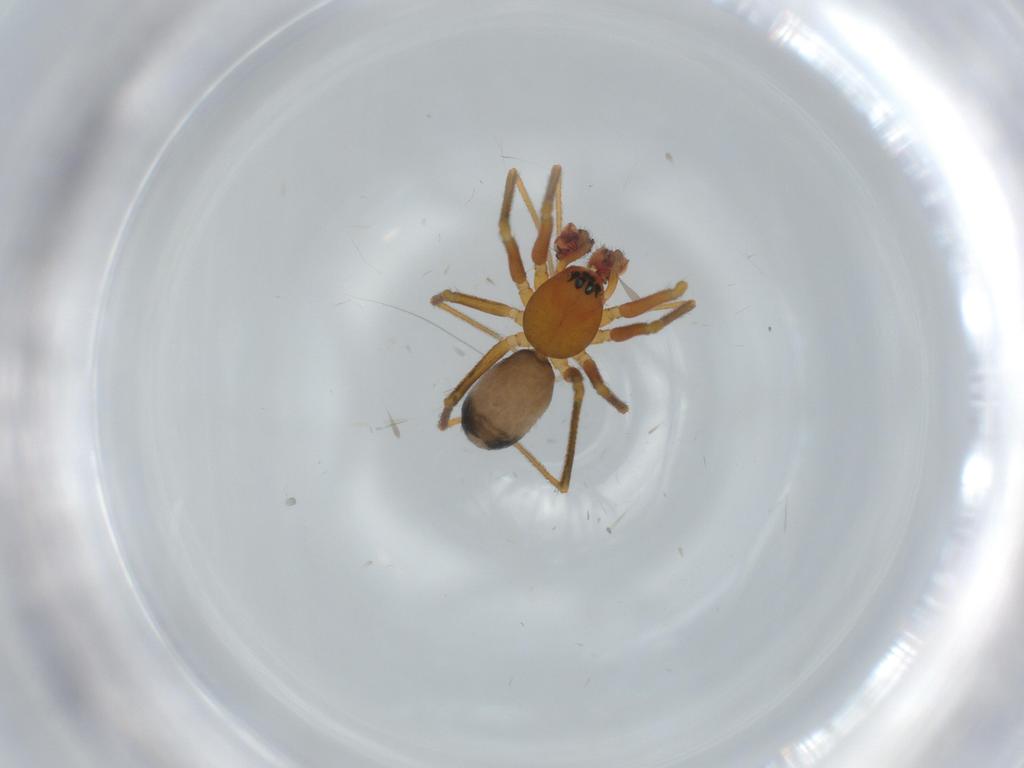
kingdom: Animalia
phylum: Arthropoda
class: Arachnida
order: Araneae
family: Linyphiidae
